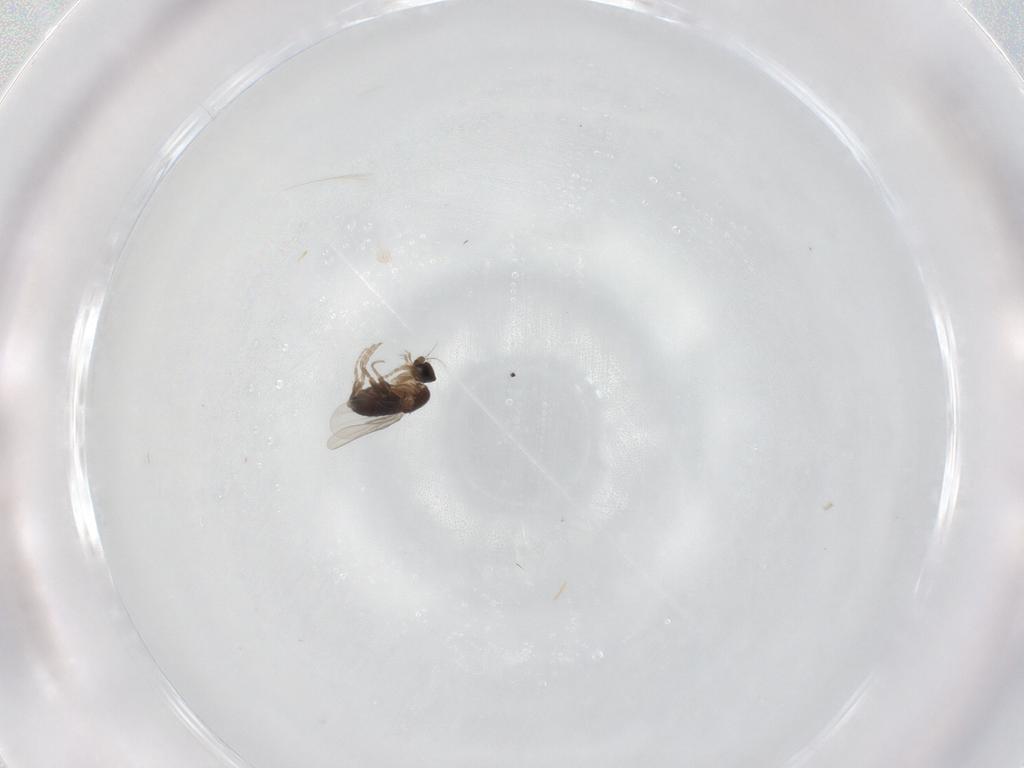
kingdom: Animalia
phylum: Arthropoda
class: Insecta
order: Diptera
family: Phoridae
